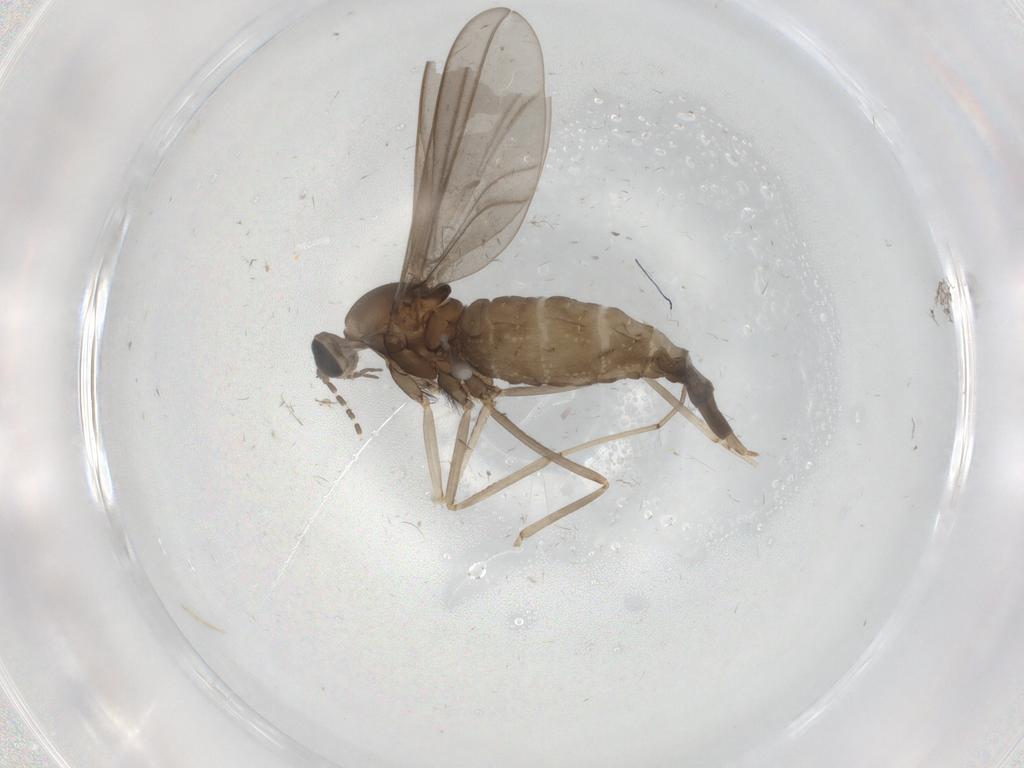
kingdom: Animalia
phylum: Arthropoda
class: Insecta
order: Diptera
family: Cecidomyiidae
